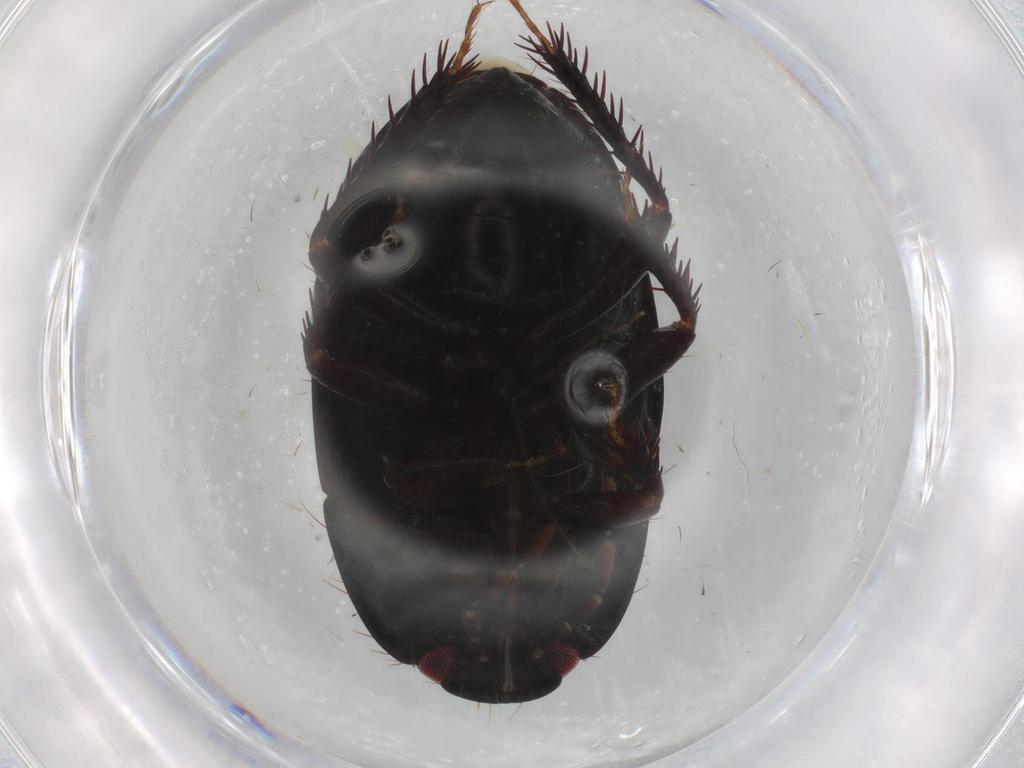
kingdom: Animalia
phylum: Arthropoda
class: Insecta
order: Hemiptera
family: Cydnidae
